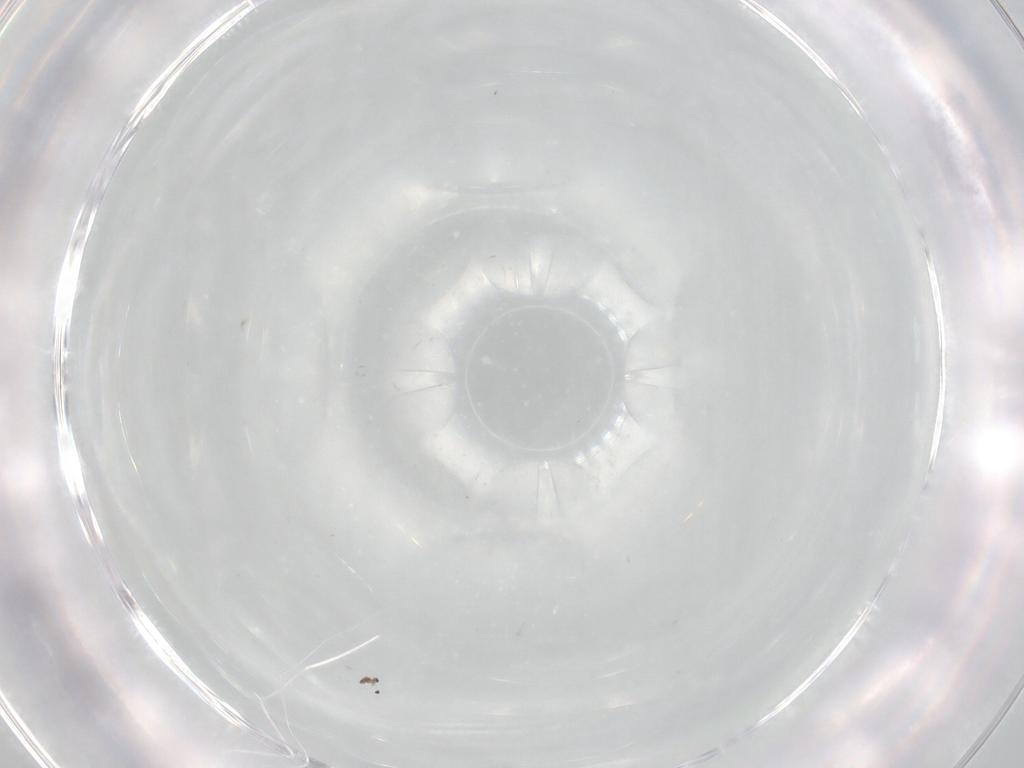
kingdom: Animalia
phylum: Arthropoda
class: Insecta
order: Diptera
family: Cecidomyiidae
